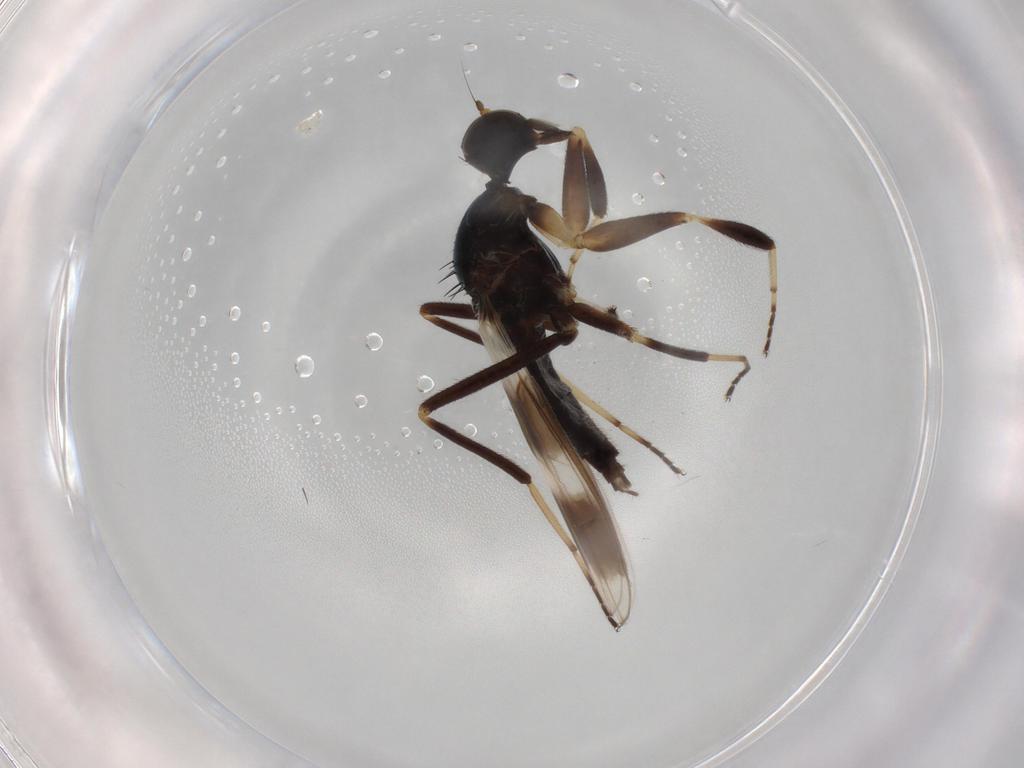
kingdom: Animalia
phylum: Arthropoda
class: Insecta
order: Diptera
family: Hybotidae
